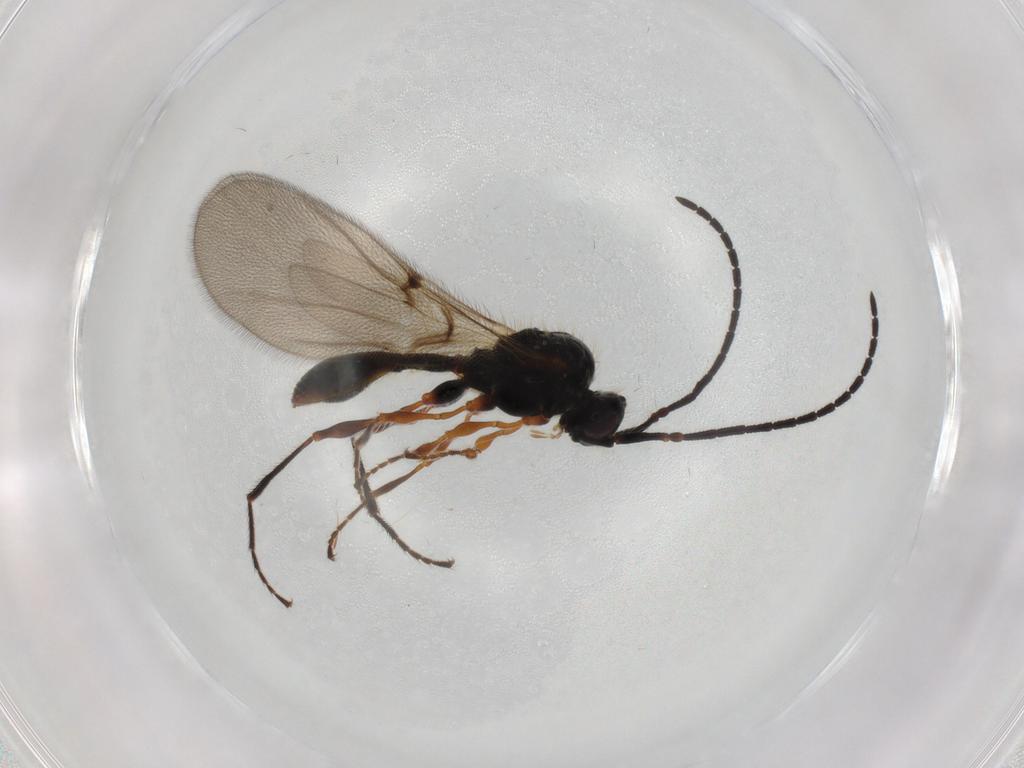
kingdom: Animalia
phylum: Arthropoda
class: Insecta
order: Hymenoptera
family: Diapriidae
